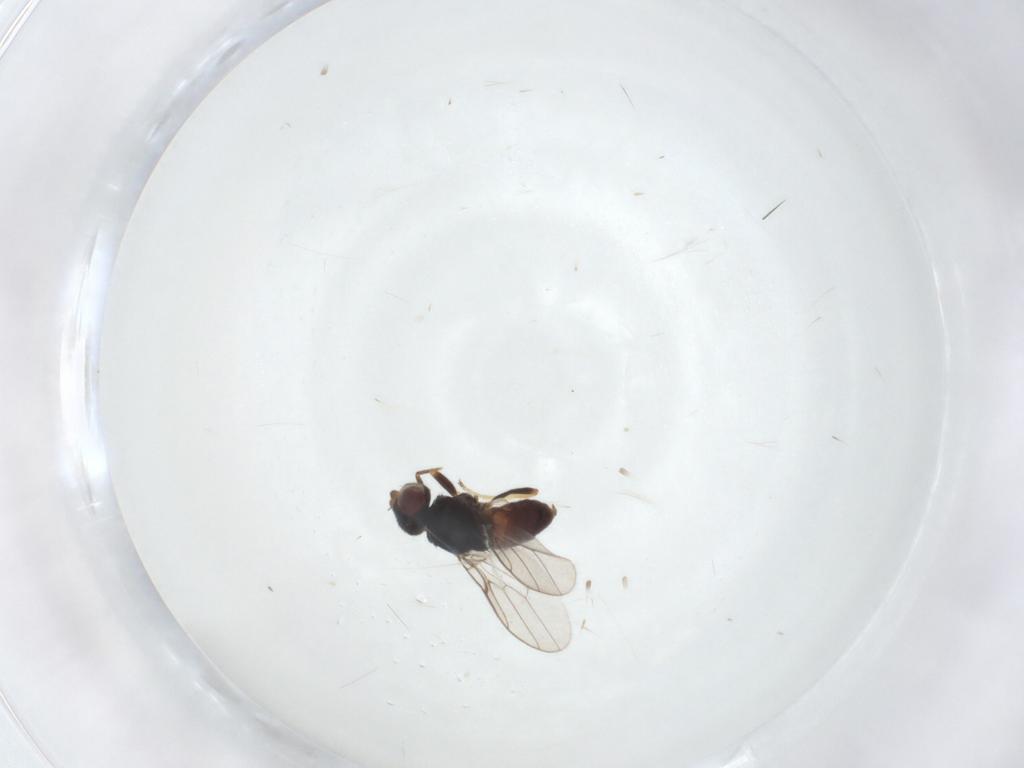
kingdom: Animalia
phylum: Arthropoda
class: Insecta
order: Diptera
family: Chloropidae
